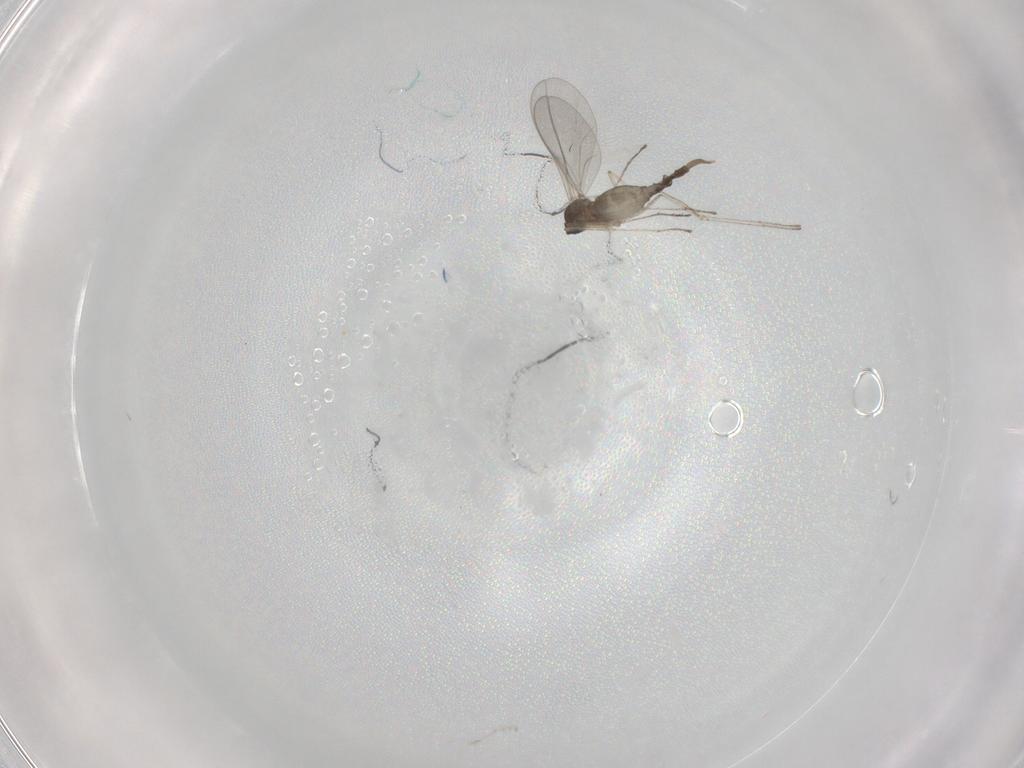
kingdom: Animalia
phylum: Arthropoda
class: Insecta
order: Diptera
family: Cecidomyiidae
